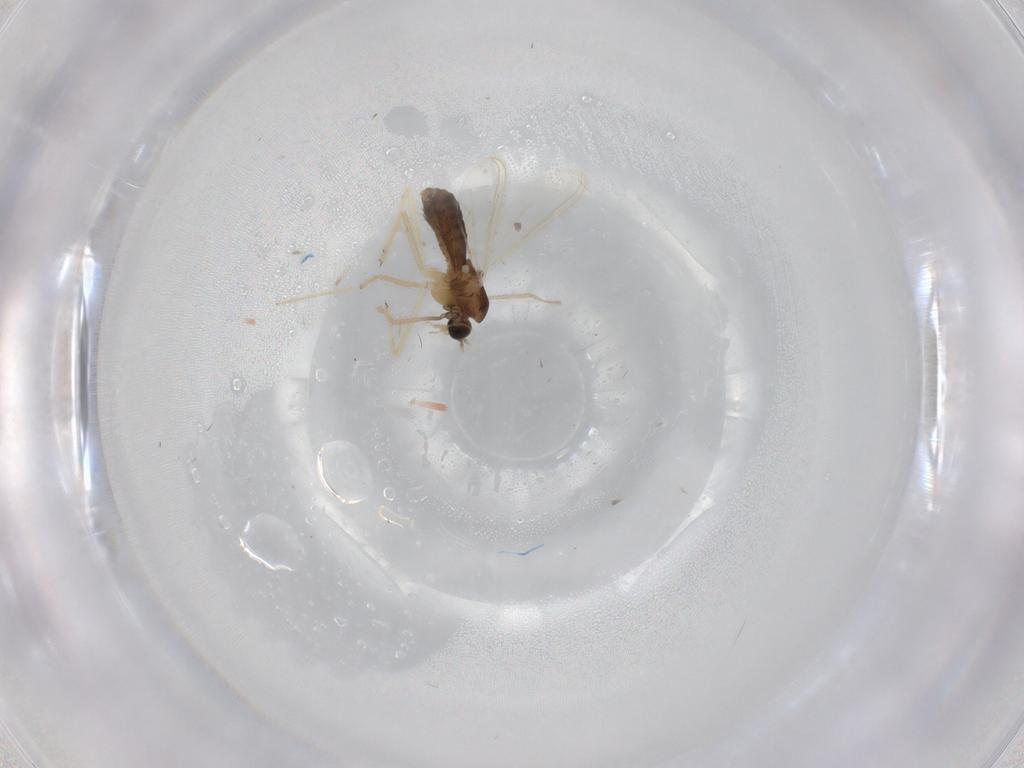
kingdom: Animalia
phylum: Arthropoda
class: Insecta
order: Diptera
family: Chironomidae
